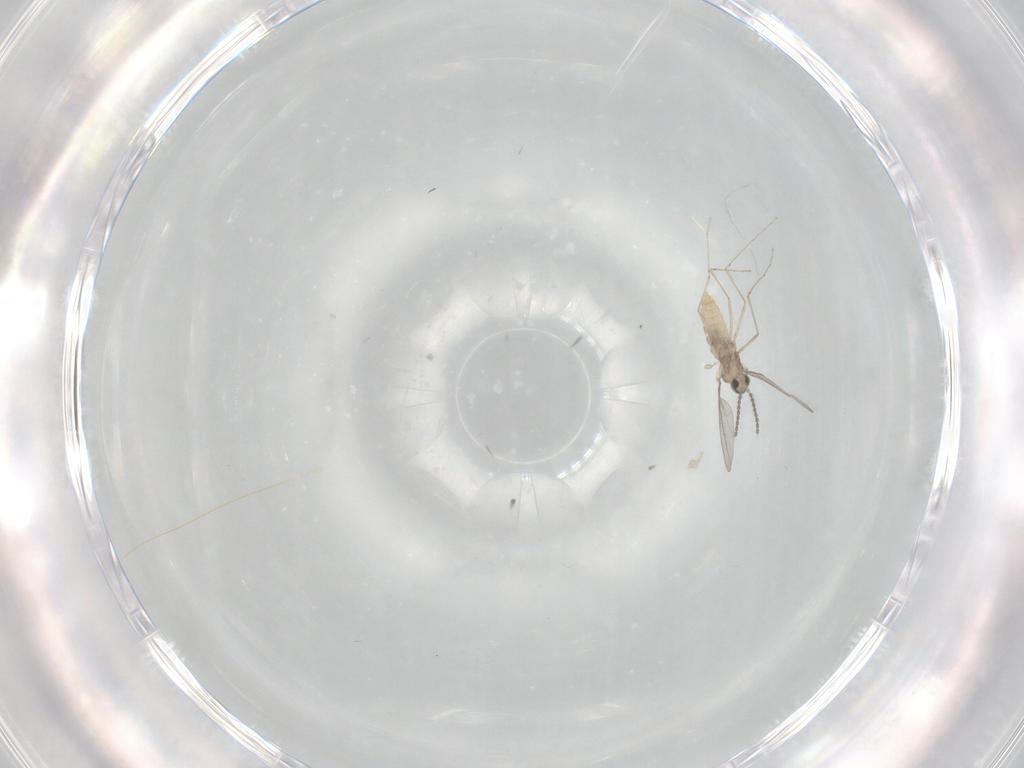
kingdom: Animalia
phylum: Arthropoda
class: Insecta
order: Diptera
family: Cecidomyiidae
